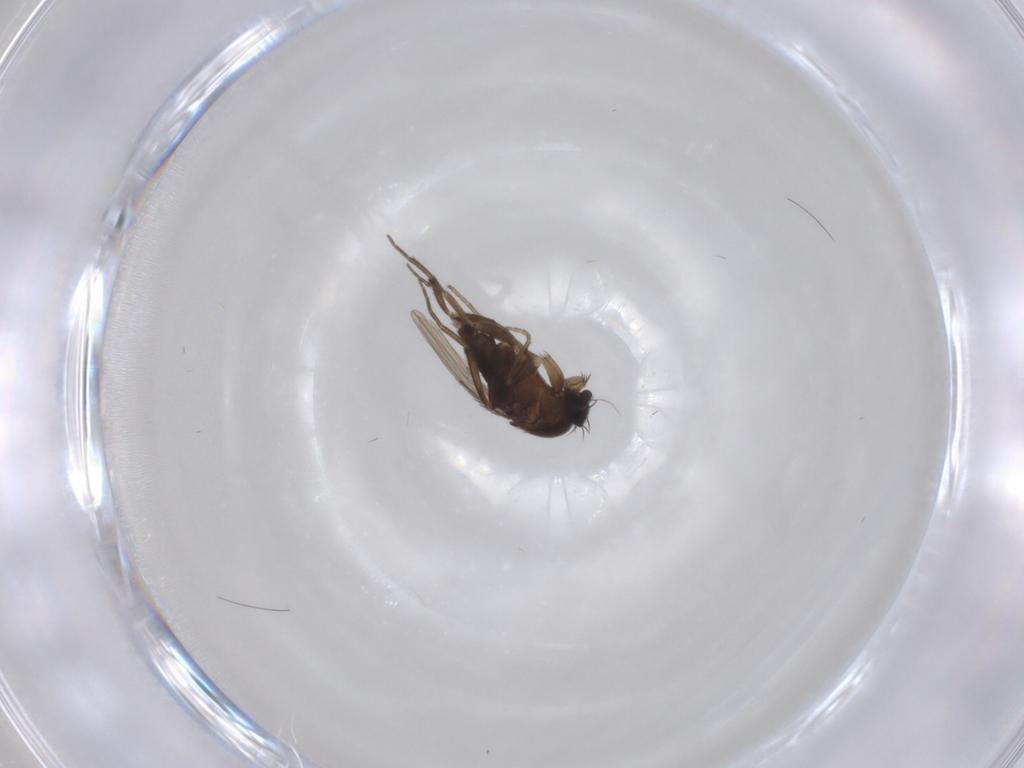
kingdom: Animalia
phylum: Arthropoda
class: Insecta
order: Diptera
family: Phoridae
